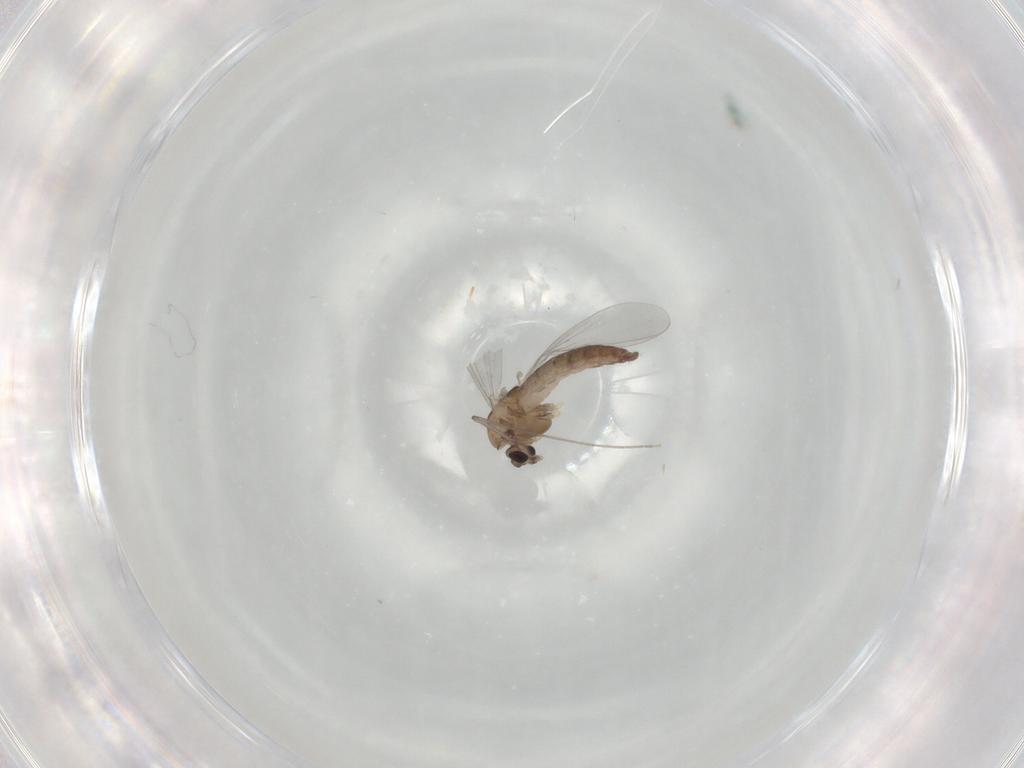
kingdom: Animalia
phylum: Arthropoda
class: Insecta
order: Diptera
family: Chironomidae
